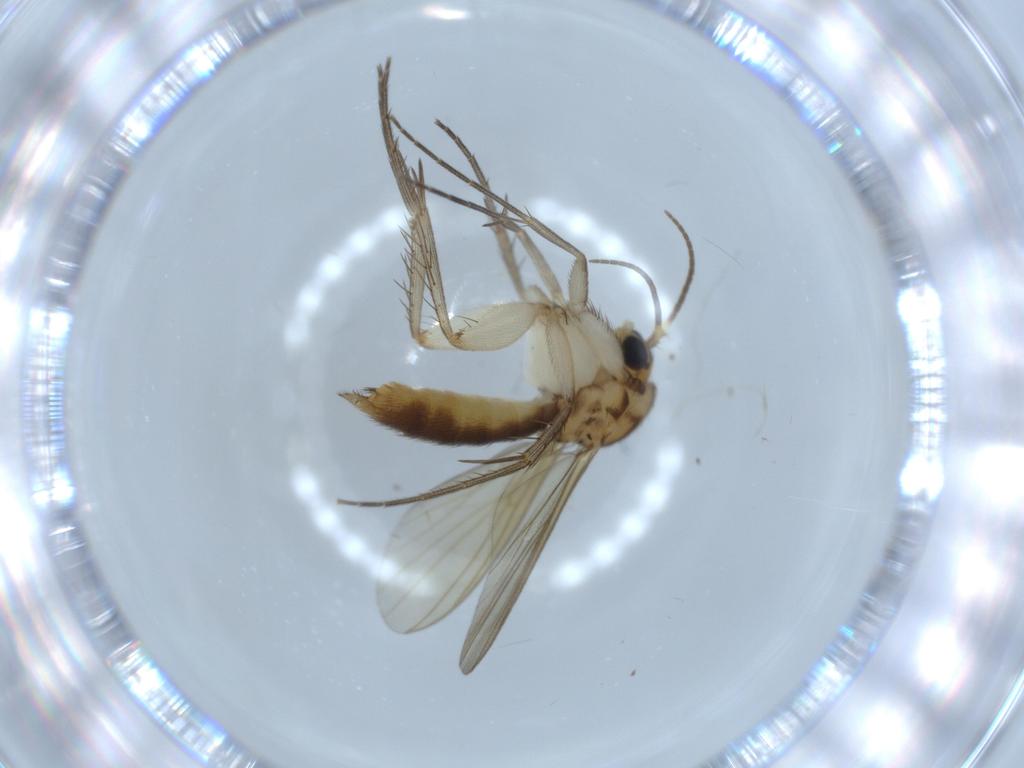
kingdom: Animalia
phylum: Arthropoda
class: Insecta
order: Diptera
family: Mycetophilidae
